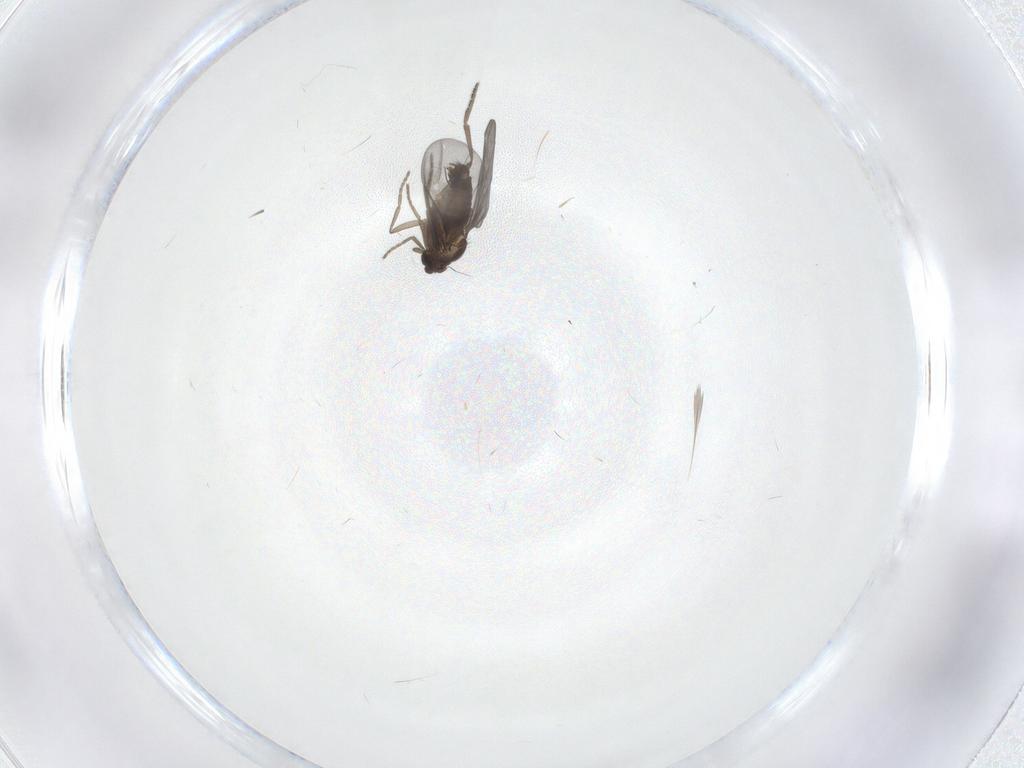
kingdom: Animalia
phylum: Arthropoda
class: Insecta
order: Diptera
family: Phoridae
